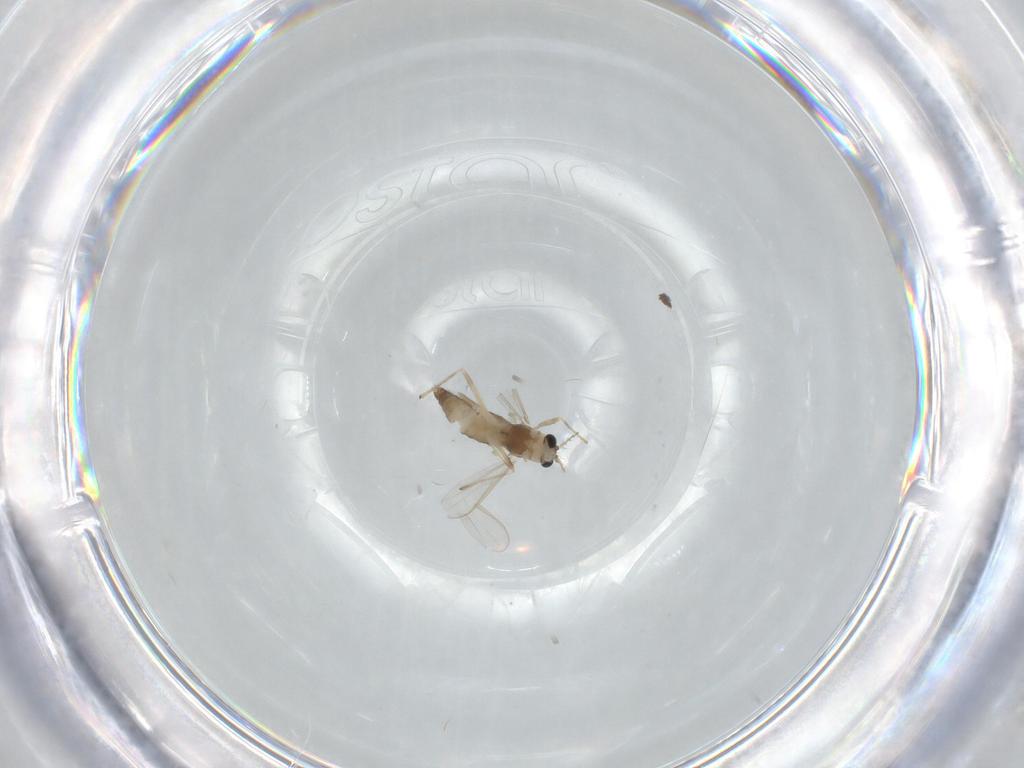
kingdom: Animalia
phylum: Arthropoda
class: Insecta
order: Diptera
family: Chironomidae
